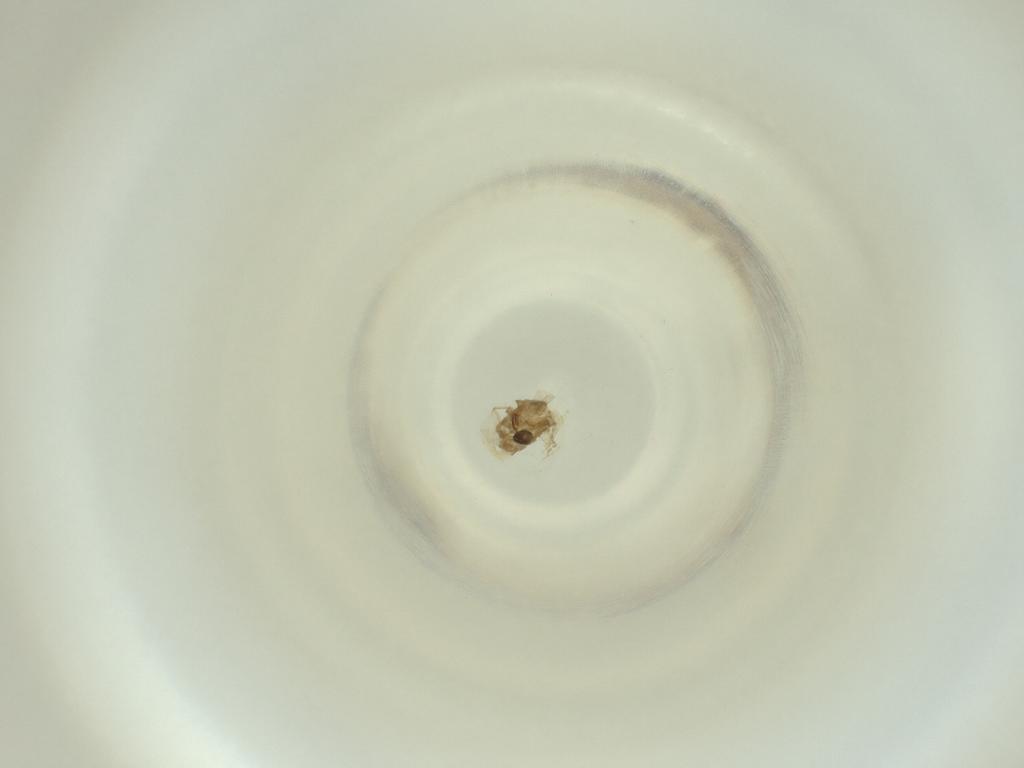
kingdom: Animalia
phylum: Arthropoda
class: Insecta
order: Diptera
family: Cecidomyiidae
